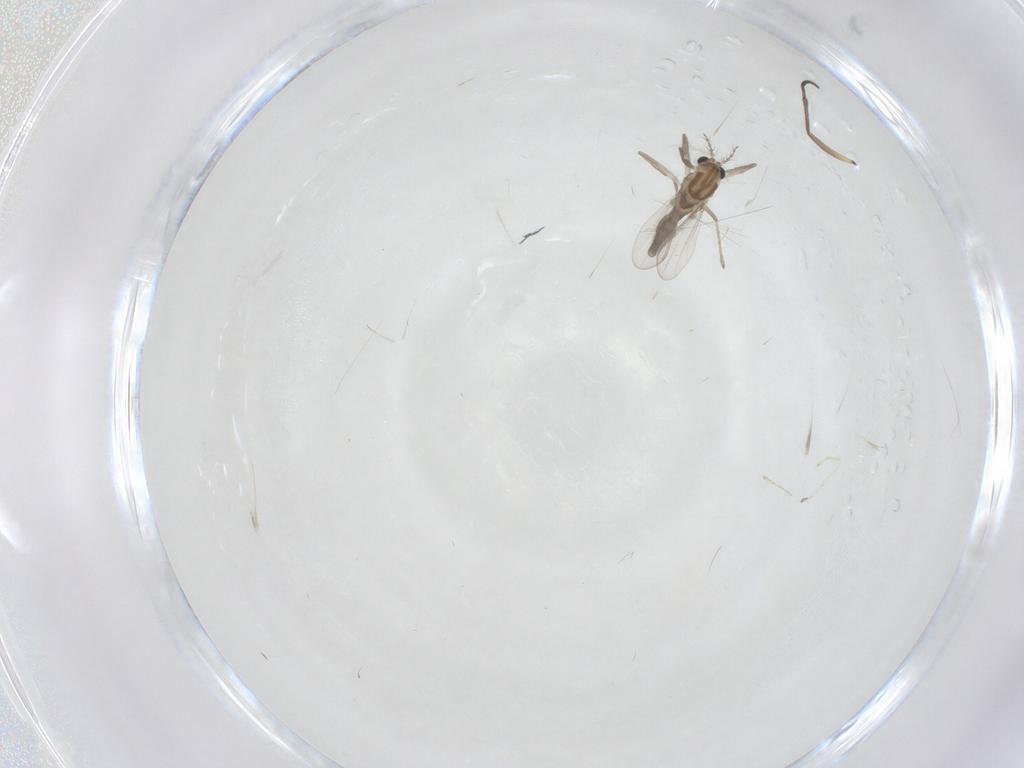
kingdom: Animalia
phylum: Arthropoda
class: Insecta
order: Diptera
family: Chironomidae
